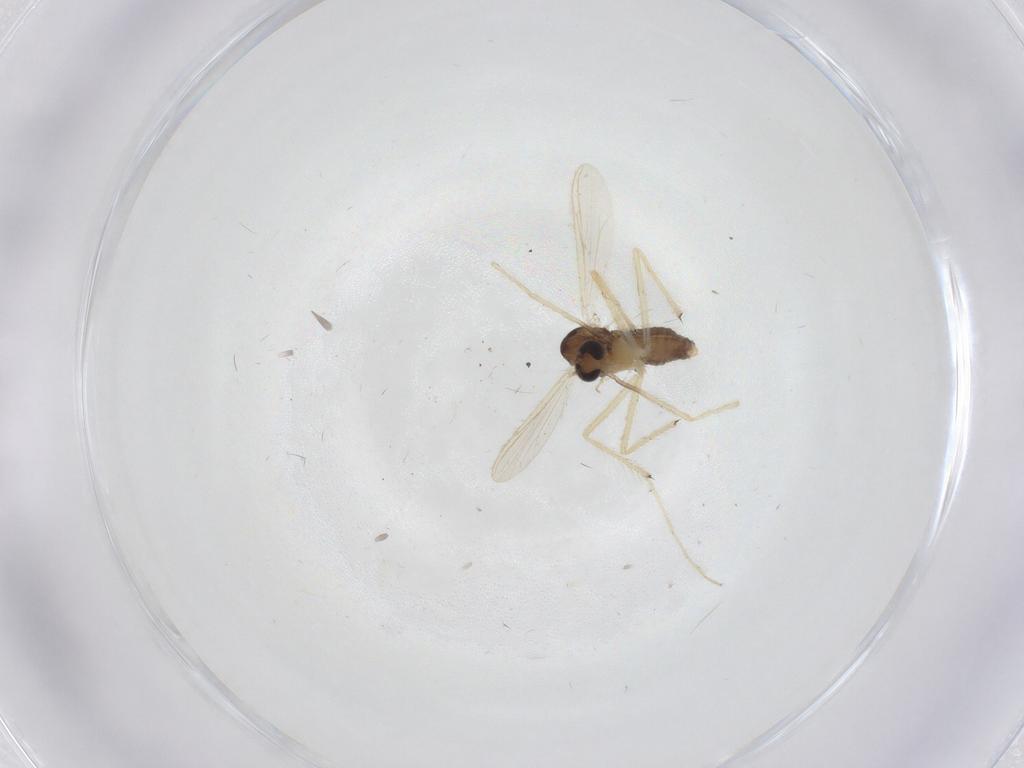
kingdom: Animalia
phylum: Arthropoda
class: Insecta
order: Diptera
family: Chironomidae
